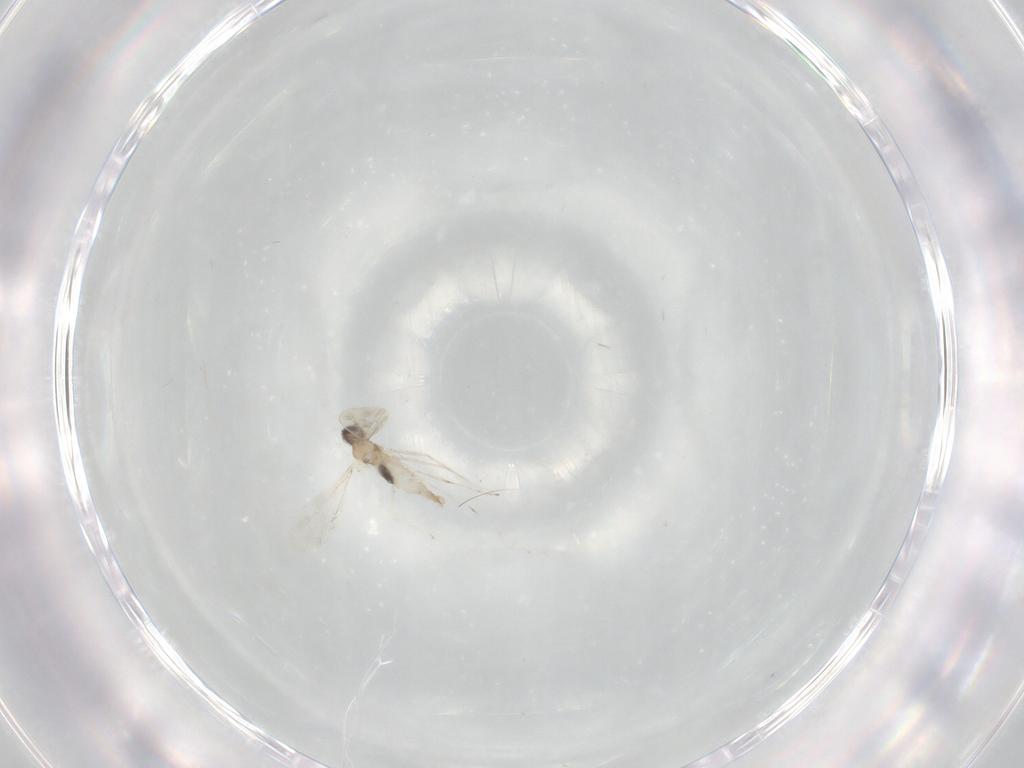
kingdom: Animalia
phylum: Arthropoda
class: Insecta
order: Diptera
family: Cecidomyiidae
